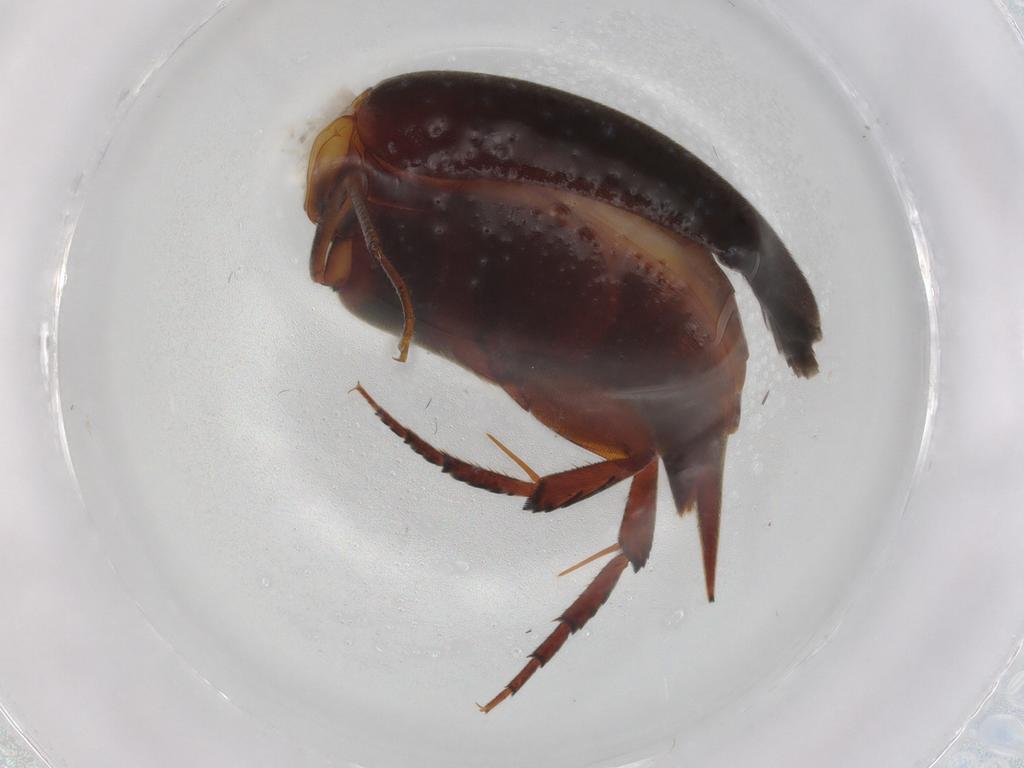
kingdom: Animalia
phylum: Arthropoda
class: Insecta
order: Coleoptera
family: Mordellidae
